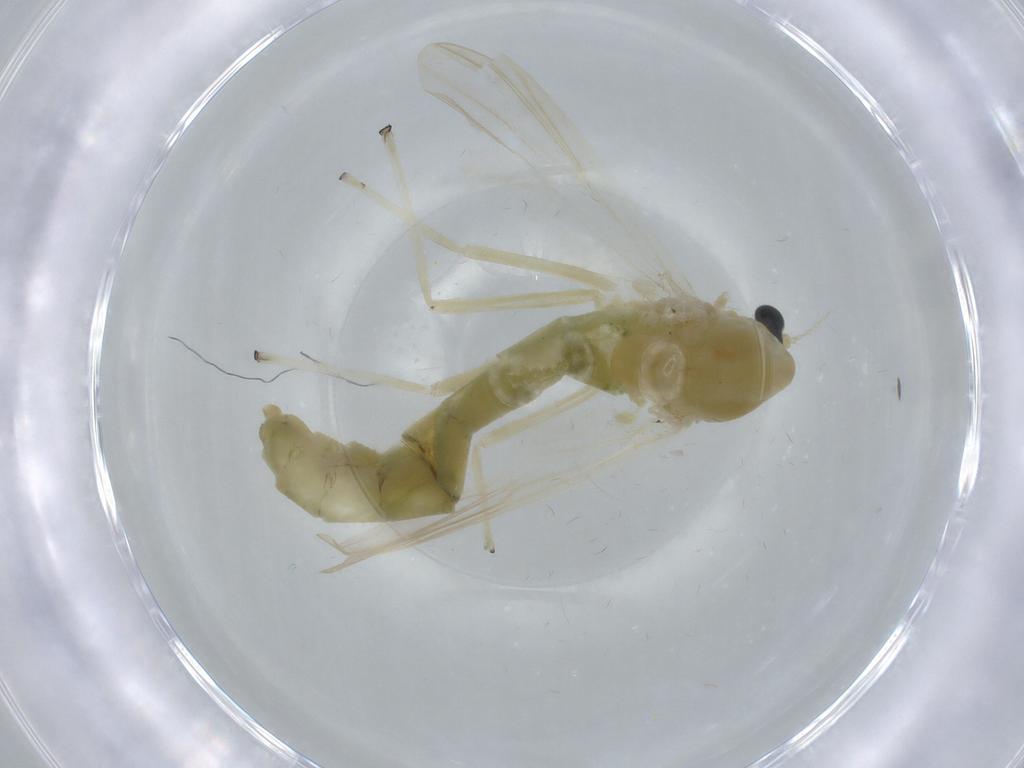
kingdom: Animalia
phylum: Arthropoda
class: Insecta
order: Diptera
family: Chironomidae
